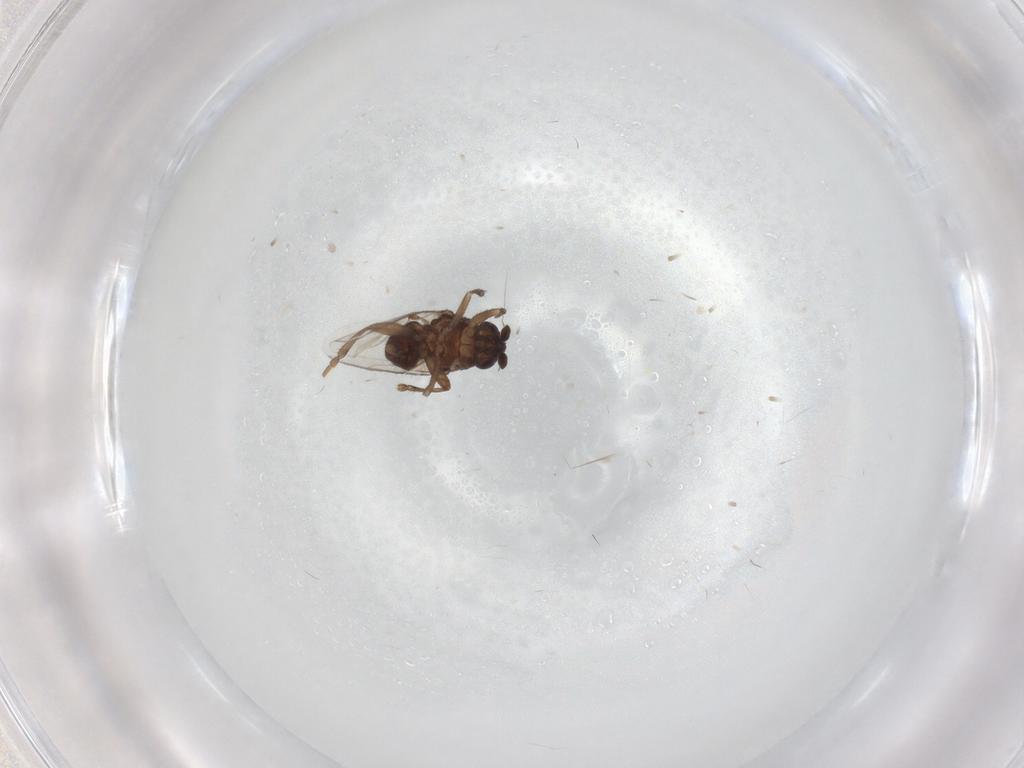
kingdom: Animalia
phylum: Arthropoda
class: Insecta
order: Diptera
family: Sphaeroceridae
